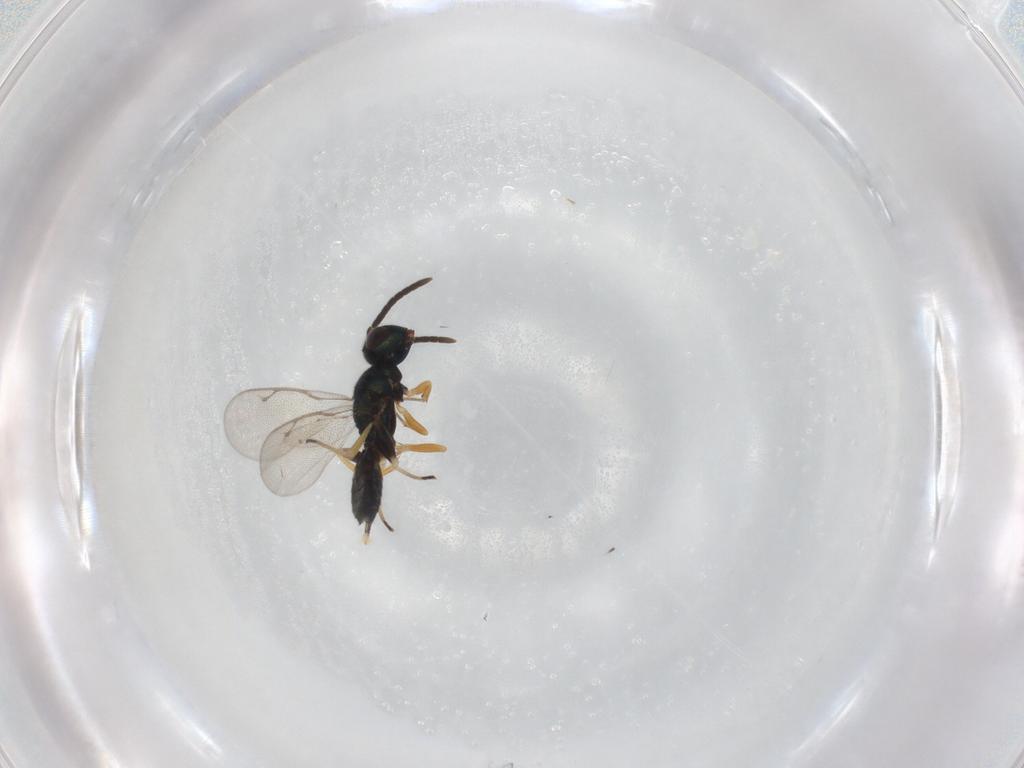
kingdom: Animalia
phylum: Arthropoda
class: Insecta
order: Hymenoptera
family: Eupelmidae
